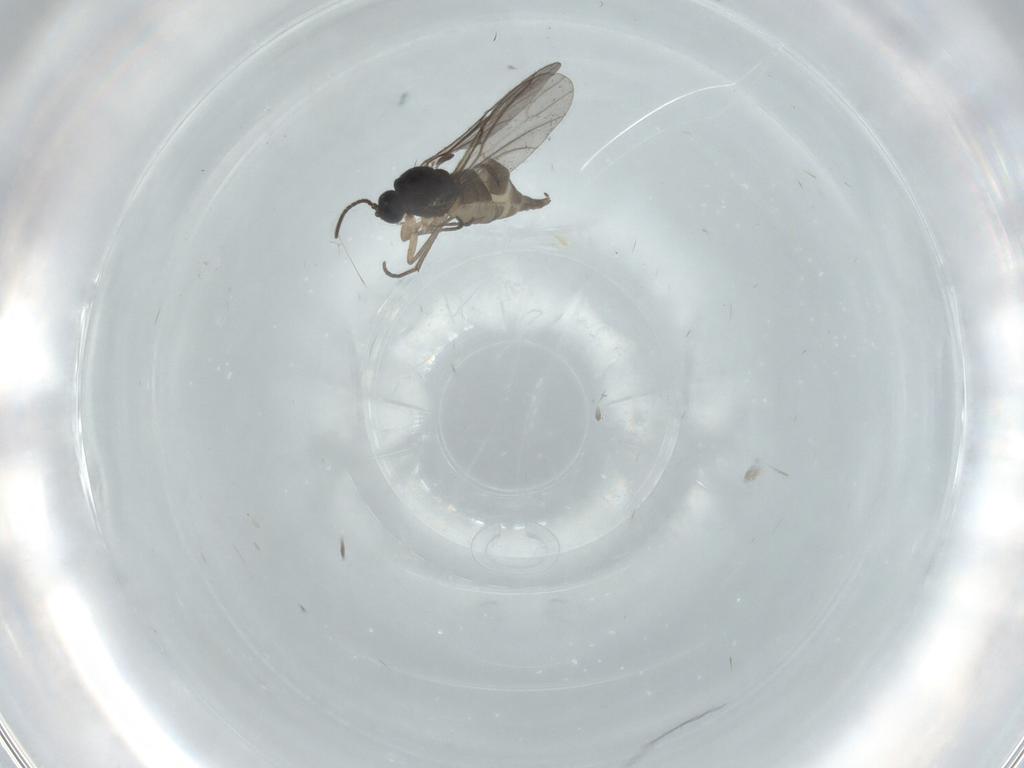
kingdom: Animalia
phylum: Arthropoda
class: Insecta
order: Diptera
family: Sciaridae
